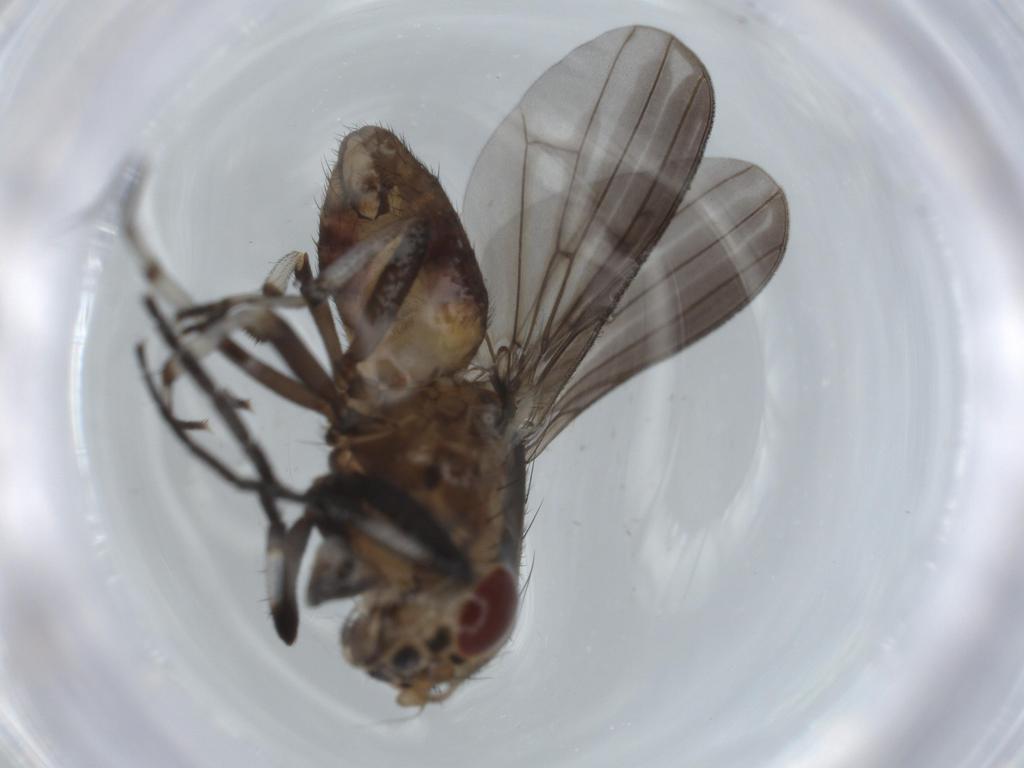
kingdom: Animalia
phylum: Arthropoda
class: Insecta
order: Diptera
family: Lauxaniidae
